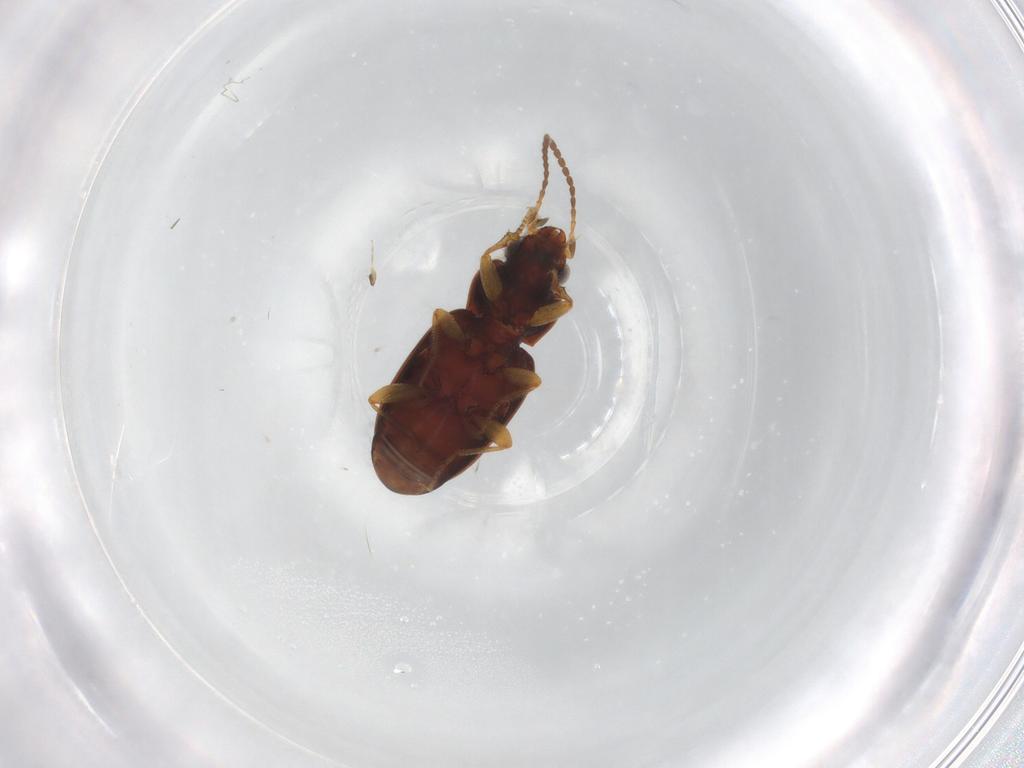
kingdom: Animalia
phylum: Arthropoda
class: Insecta
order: Coleoptera
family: Carabidae
